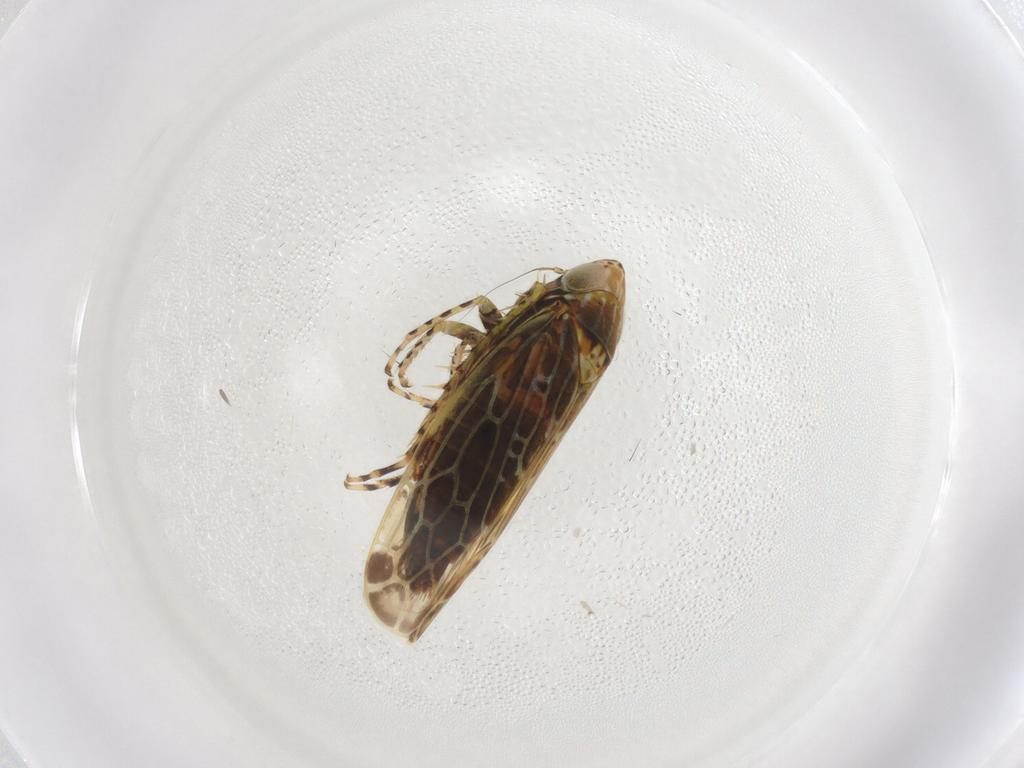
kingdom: Animalia
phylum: Arthropoda
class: Insecta
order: Hemiptera
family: Cicadellidae
